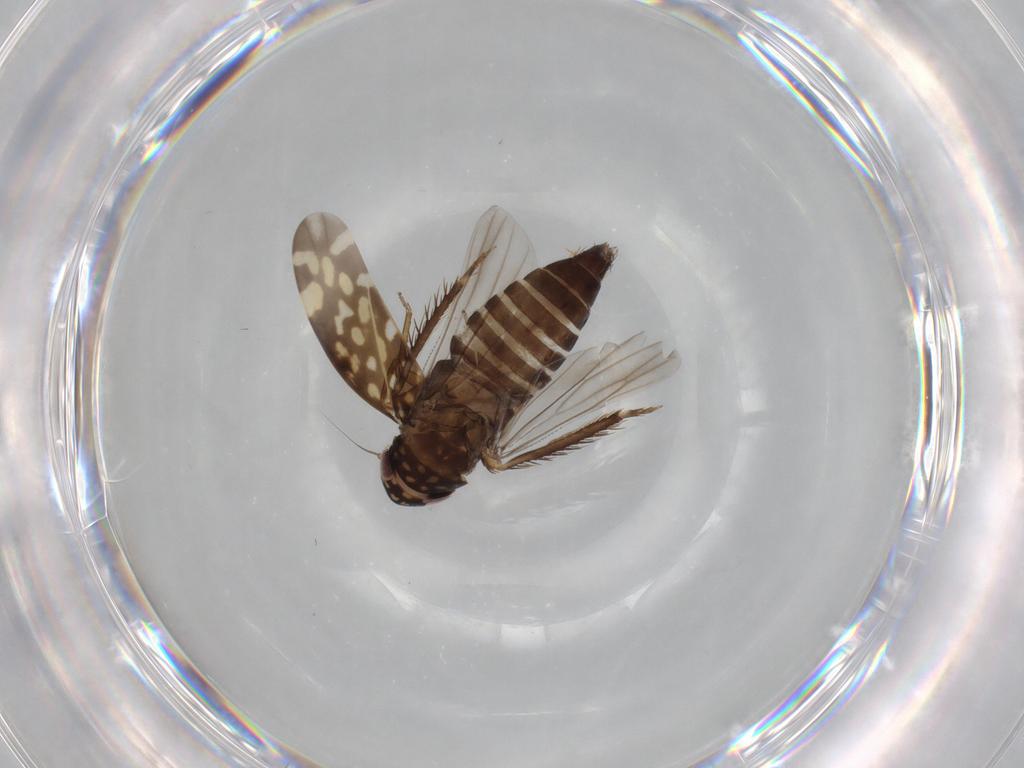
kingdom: Animalia
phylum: Arthropoda
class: Insecta
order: Hemiptera
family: Cicadellidae
